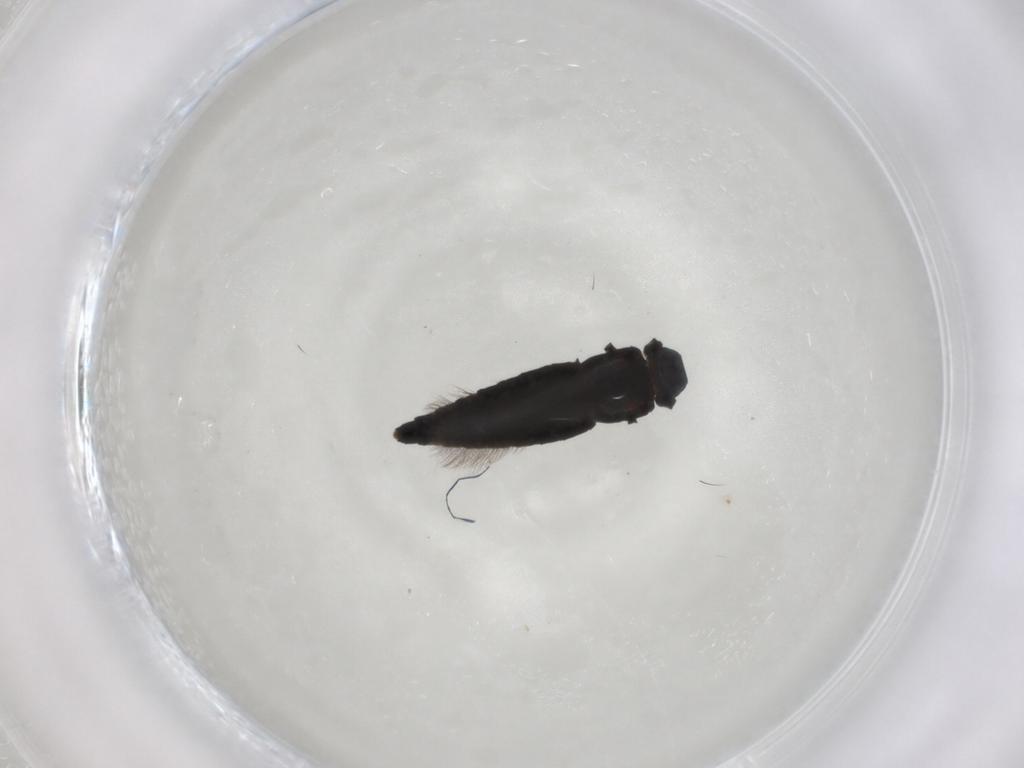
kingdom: Animalia
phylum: Arthropoda
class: Insecta
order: Thysanoptera
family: Phlaeothripidae
